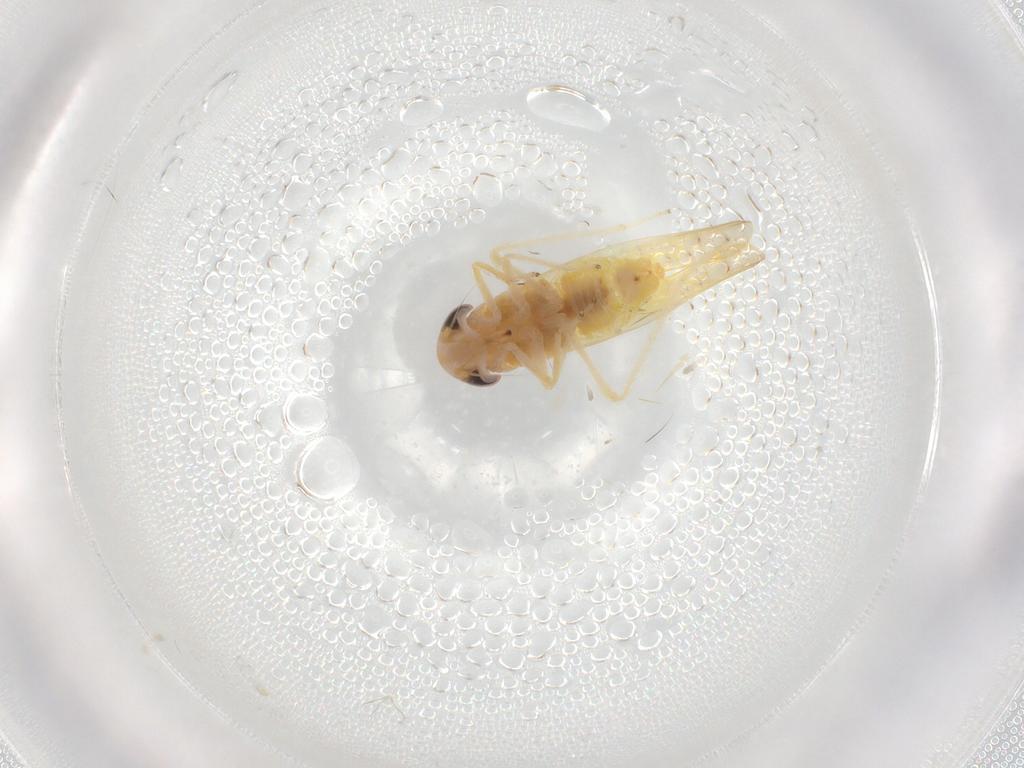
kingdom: Animalia
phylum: Arthropoda
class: Insecta
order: Hemiptera
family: Cicadellidae
